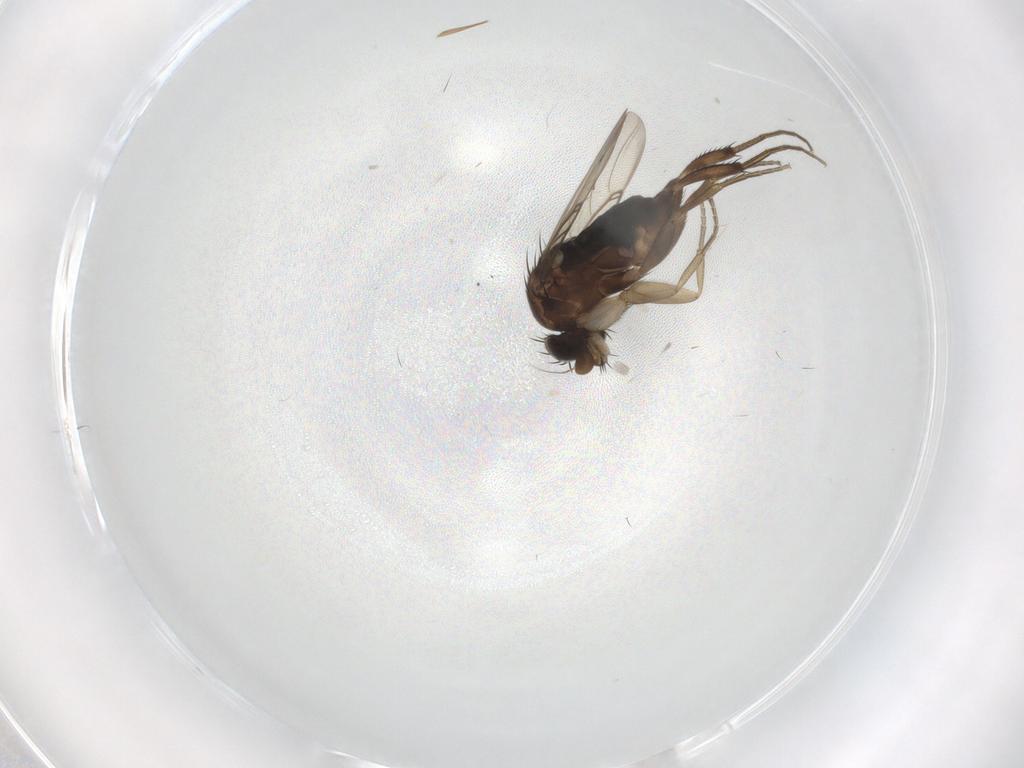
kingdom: Animalia
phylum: Arthropoda
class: Insecta
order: Diptera
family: Phoridae
